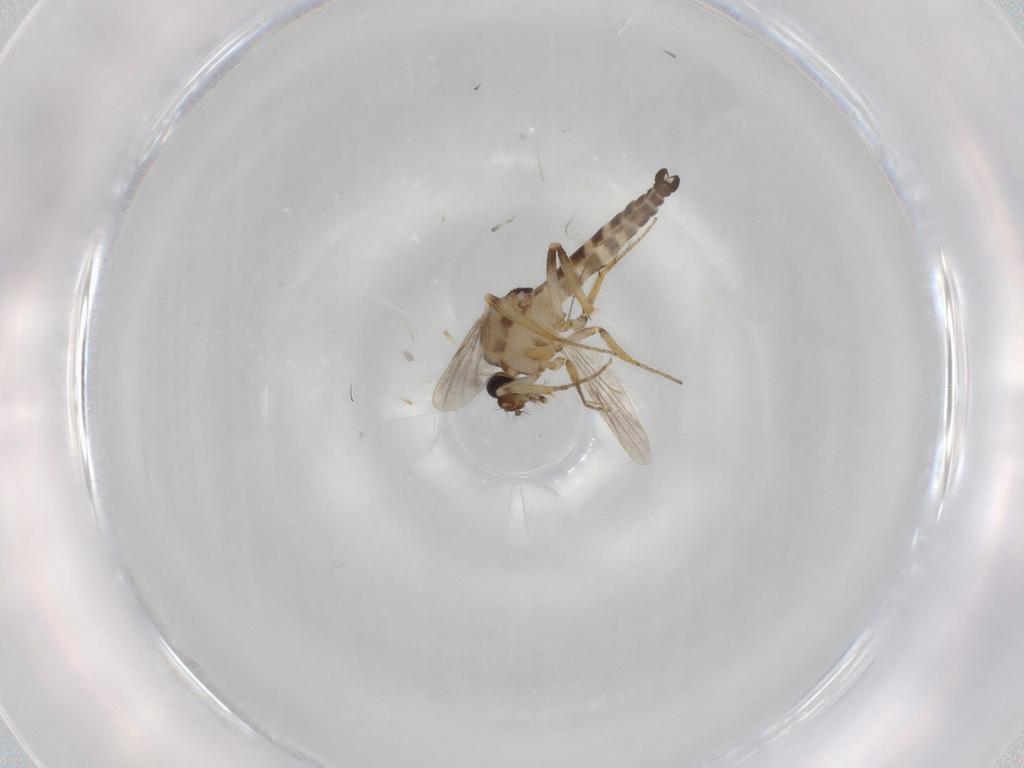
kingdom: Animalia
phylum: Arthropoda
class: Insecta
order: Diptera
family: Ceratopogonidae
